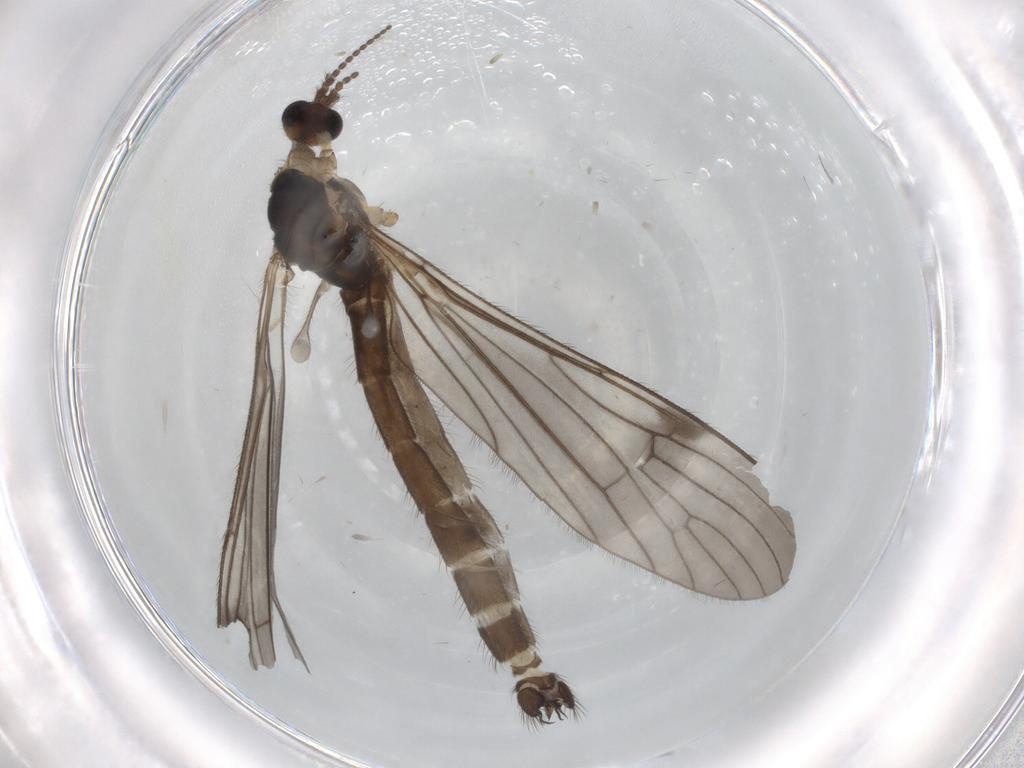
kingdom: Animalia
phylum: Arthropoda
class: Insecta
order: Diptera
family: Limoniidae
